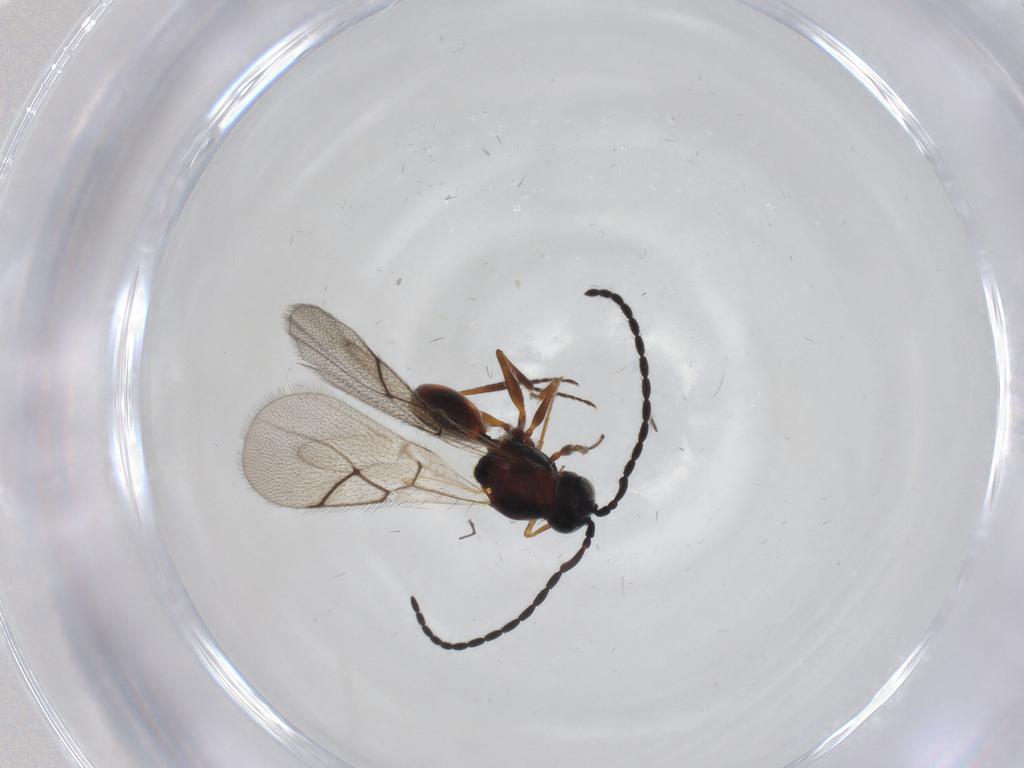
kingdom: Animalia
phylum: Arthropoda
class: Insecta
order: Hymenoptera
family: Figitidae
